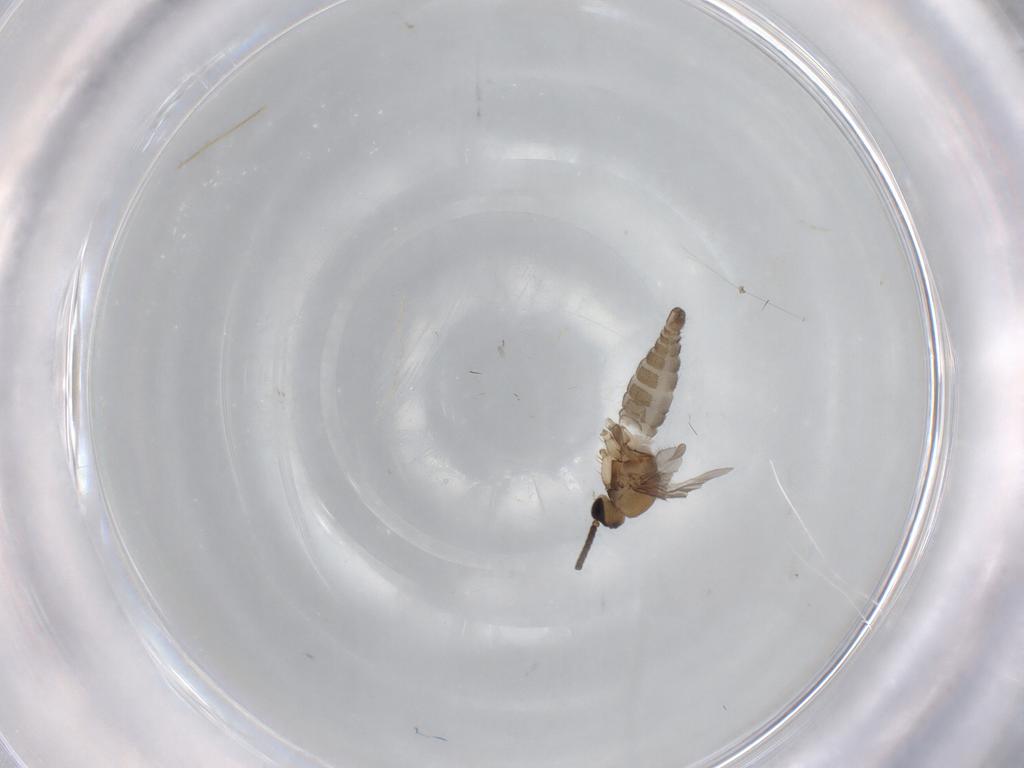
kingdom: Animalia
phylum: Arthropoda
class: Insecta
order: Diptera
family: Sciaridae
